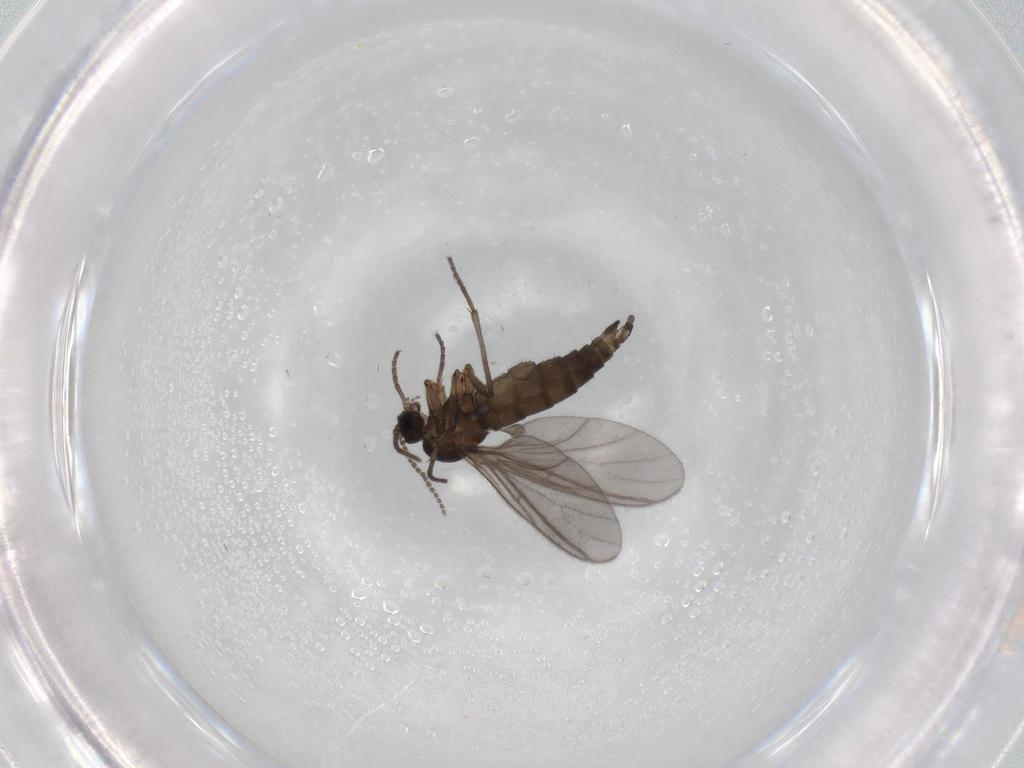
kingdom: Animalia
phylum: Arthropoda
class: Insecta
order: Diptera
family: Sciaridae
